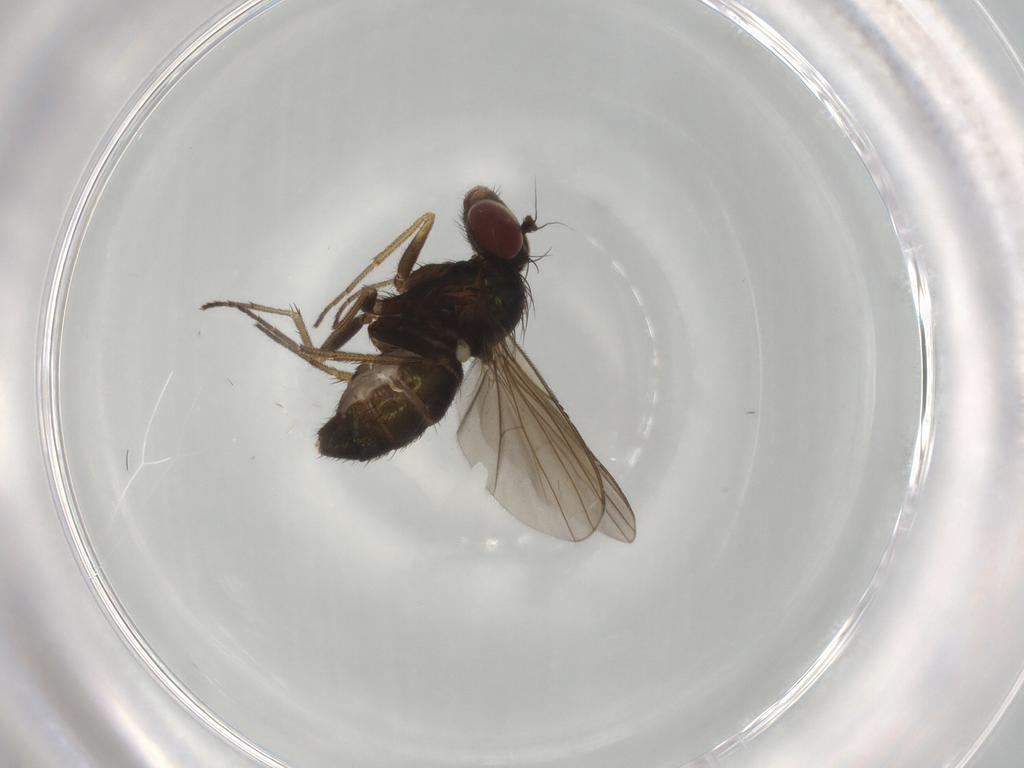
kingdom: Animalia
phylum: Arthropoda
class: Insecta
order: Diptera
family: Dolichopodidae
